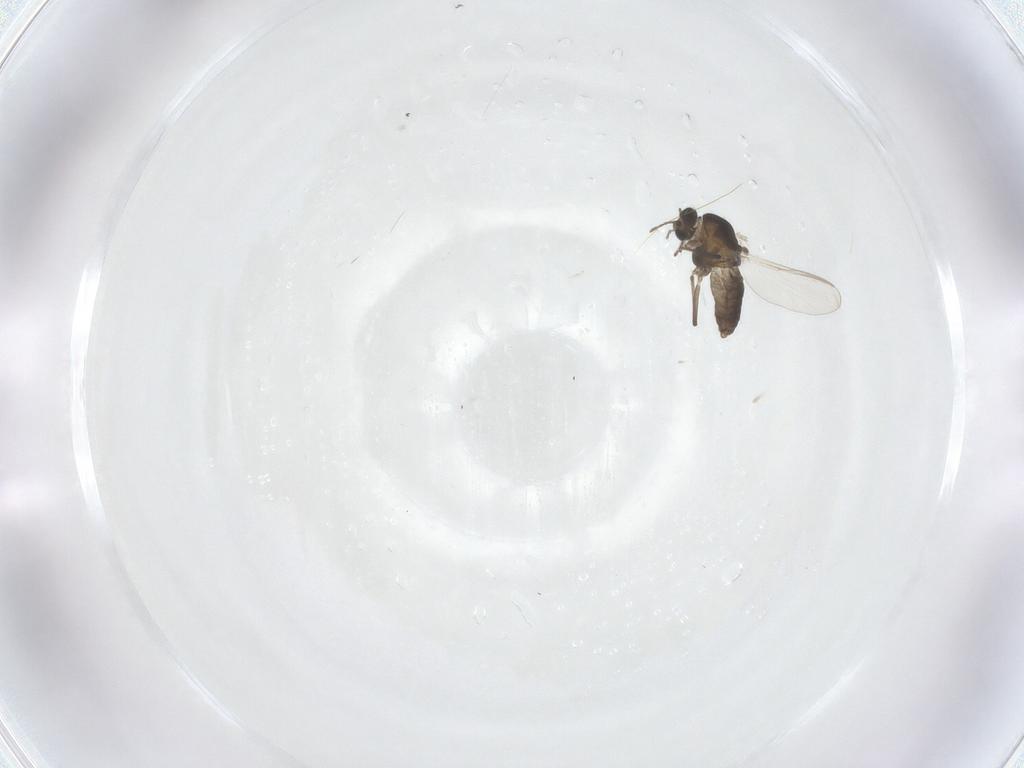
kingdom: Animalia
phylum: Arthropoda
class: Insecta
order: Diptera
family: Chironomidae
